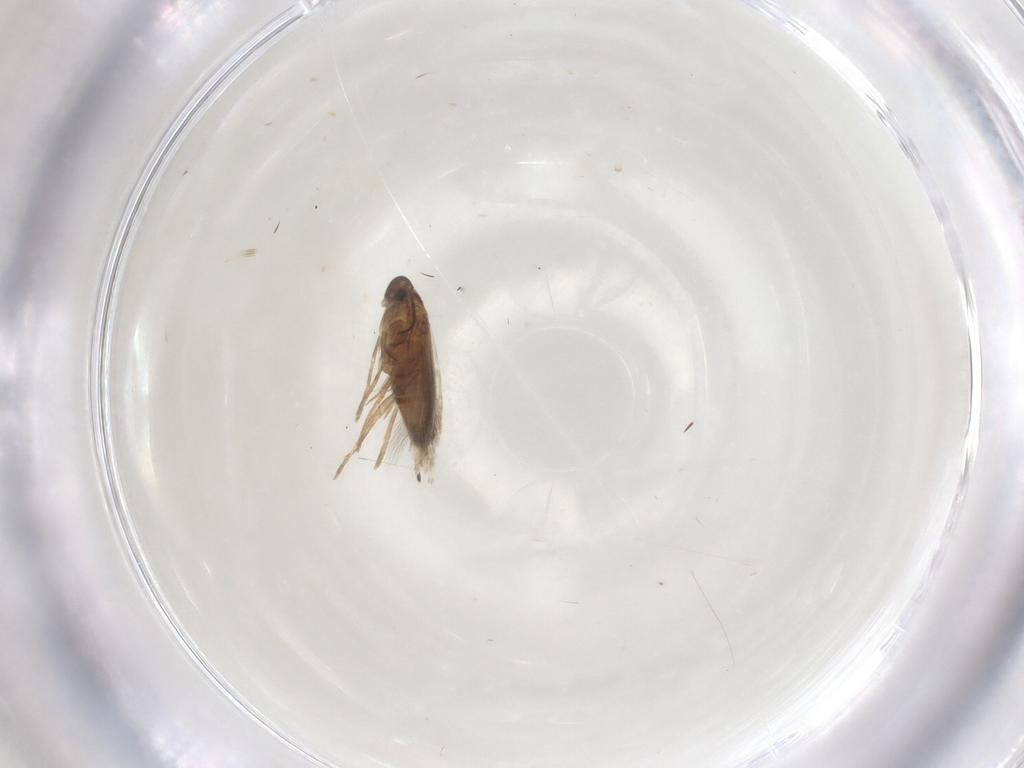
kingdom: Animalia
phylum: Arthropoda
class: Insecta
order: Lepidoptera
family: Heliozelidae
